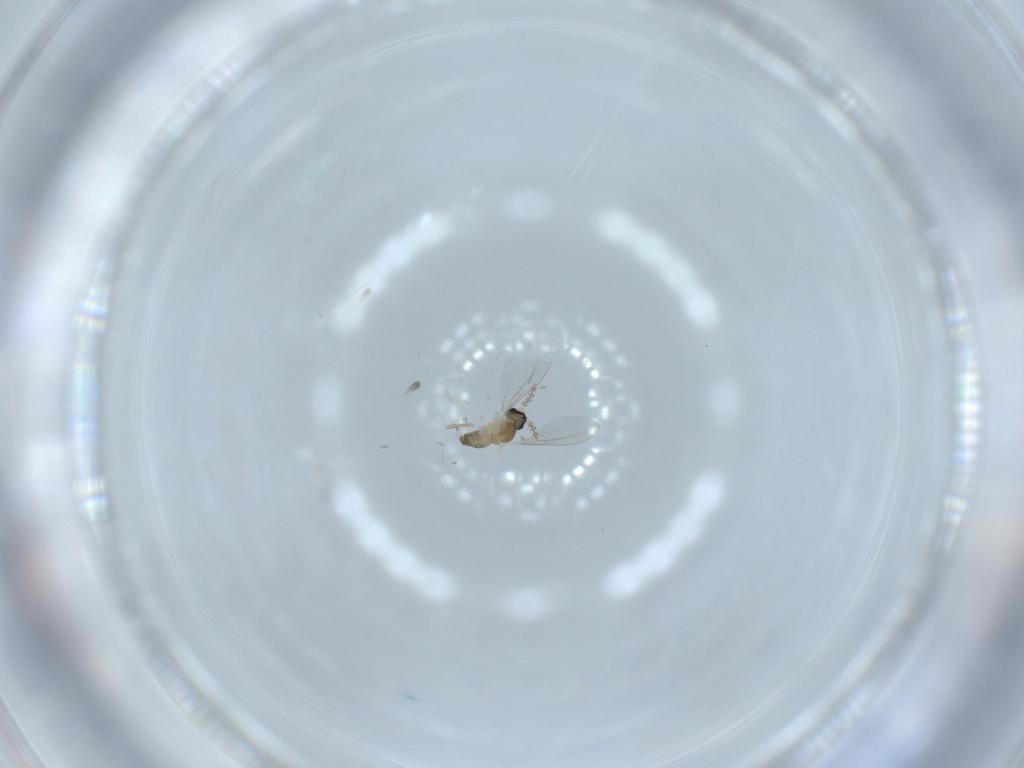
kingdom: Animalia
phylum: Arthropoda
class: Insecta
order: Diptera
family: Cecidomyiidae
